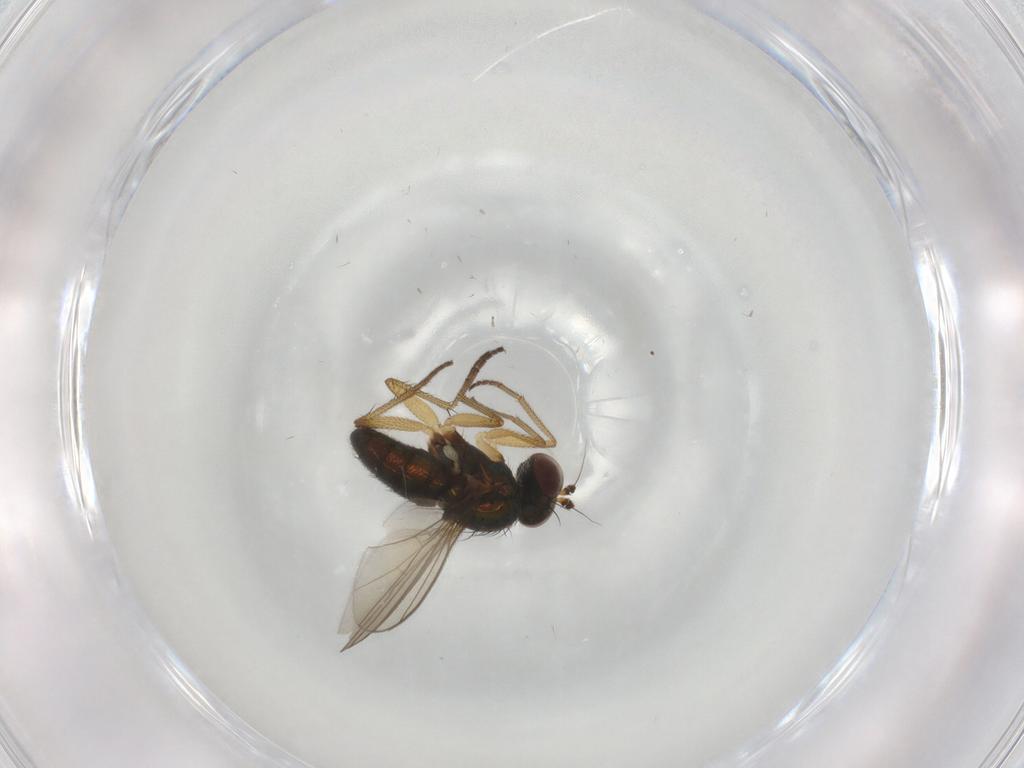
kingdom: Animalia
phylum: Arthropoda
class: Insecta
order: Diptera
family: Ceratopogonidae
